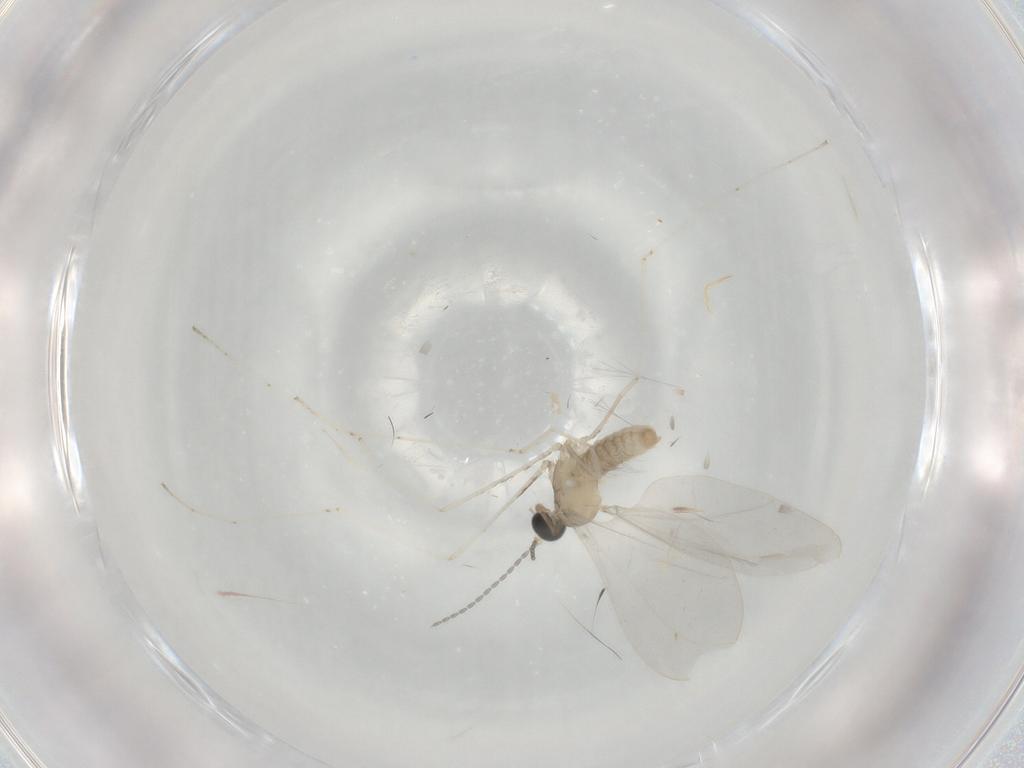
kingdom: Animalia
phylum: Arthropoda
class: Insecta
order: Diptera
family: Cecidomyiidae
